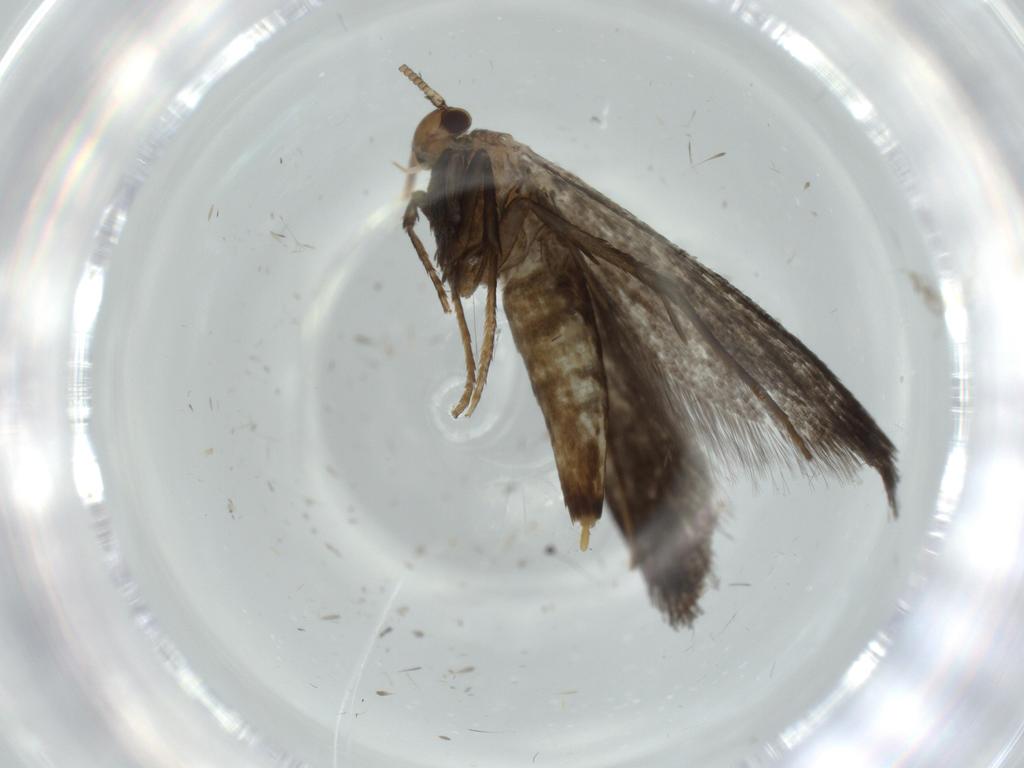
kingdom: Animalia
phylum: Arthropoda
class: Insecta
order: Lepidoptera
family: Tineidae
